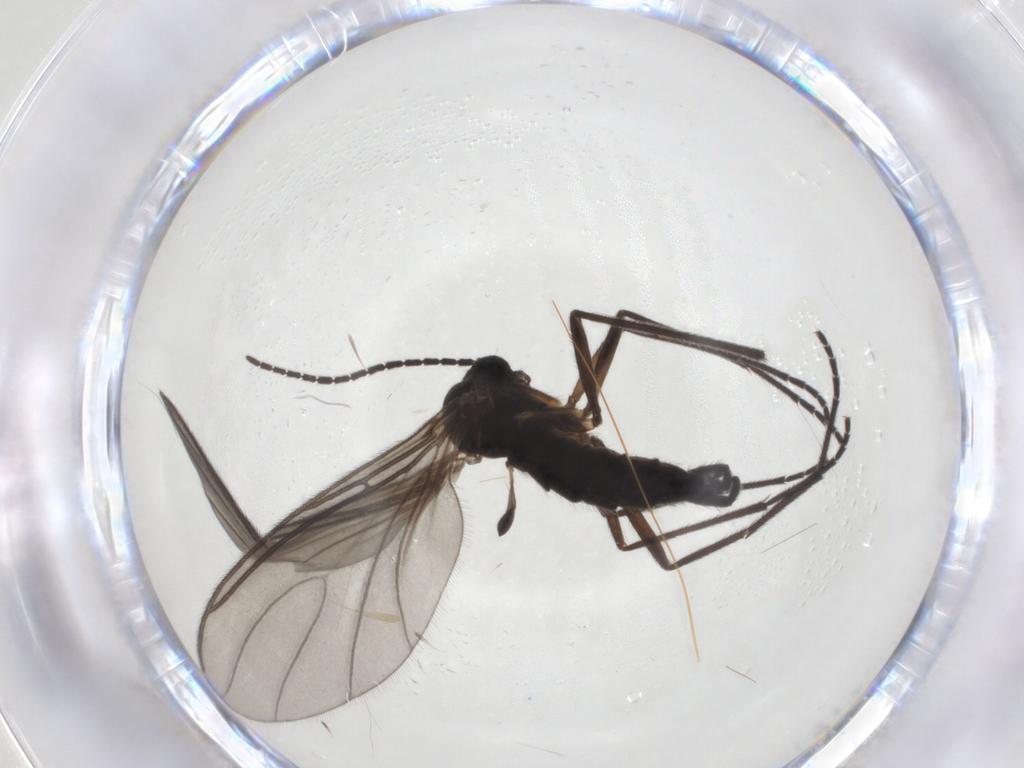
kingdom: Animalia
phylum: Arthropoda
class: Insecta
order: Diptera
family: Sciaridae
